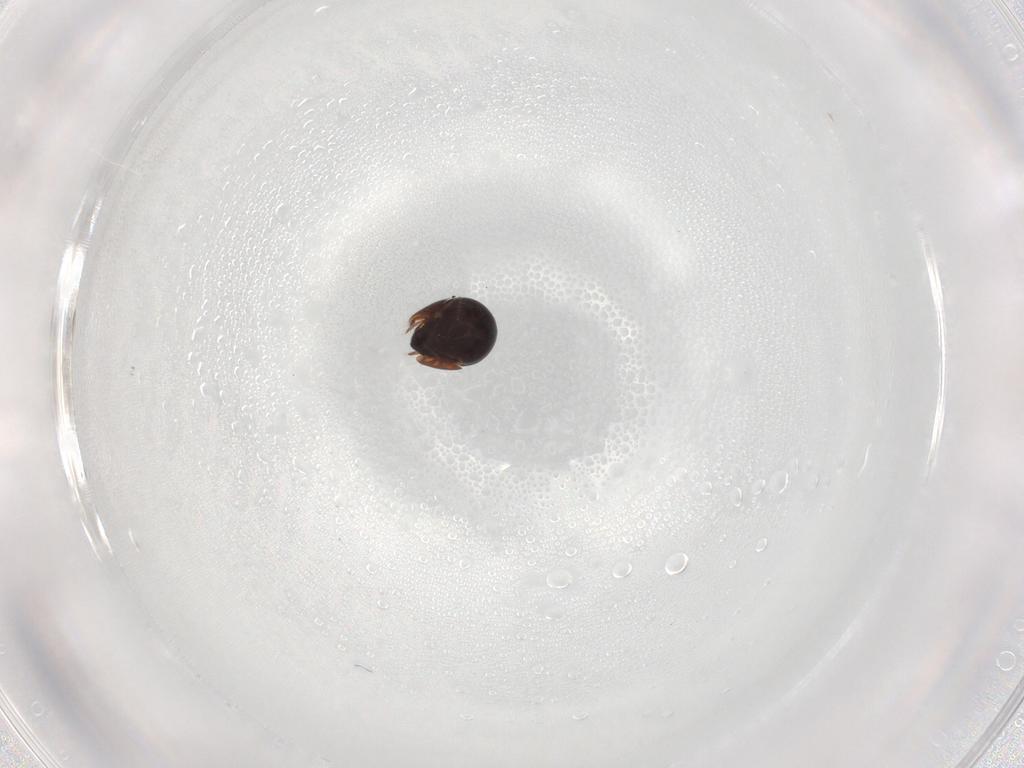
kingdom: Animalia
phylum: Arthropoda
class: Arachnida
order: Sarcoptiformes
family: Ceratozetidae
